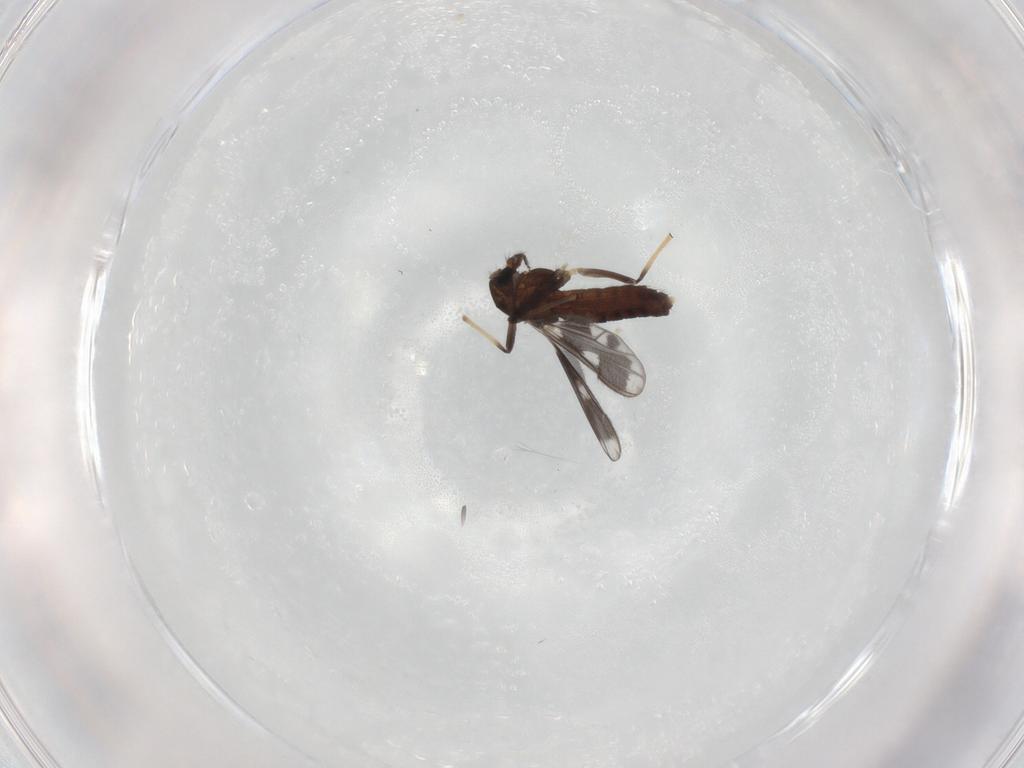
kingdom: Animalia
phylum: Arthropoda
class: Insecta
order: Diptera
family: Chironomidae
